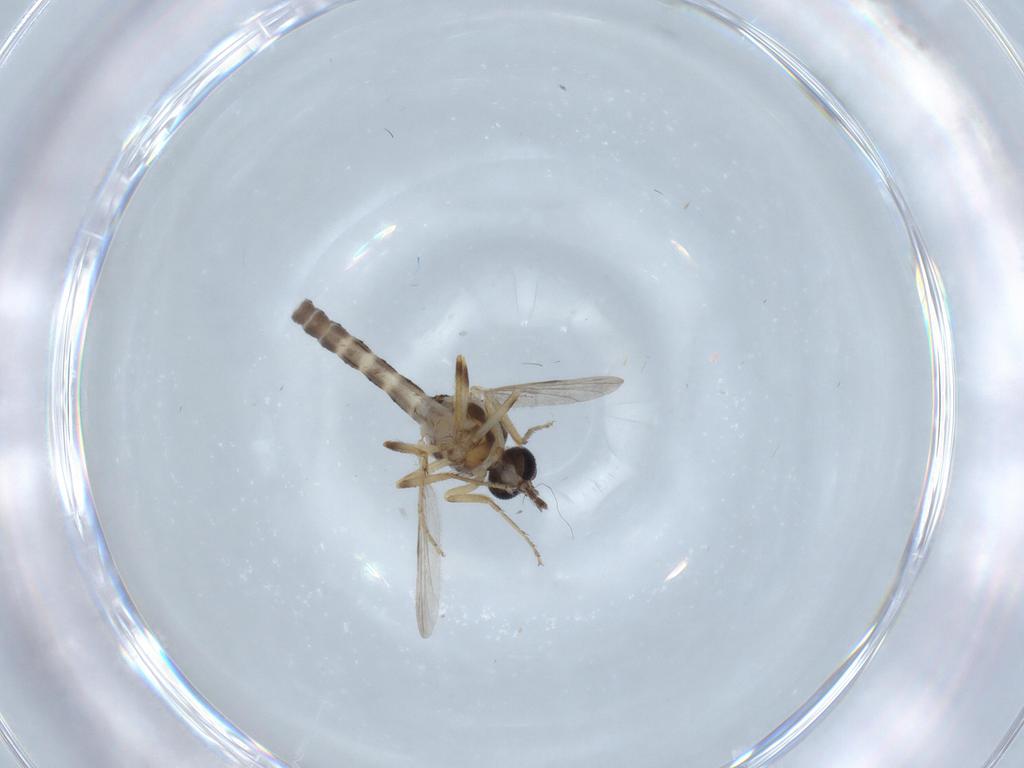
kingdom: Animalia
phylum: Arthropoda
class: Insecta
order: Diptera
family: Ceratopogonidae
